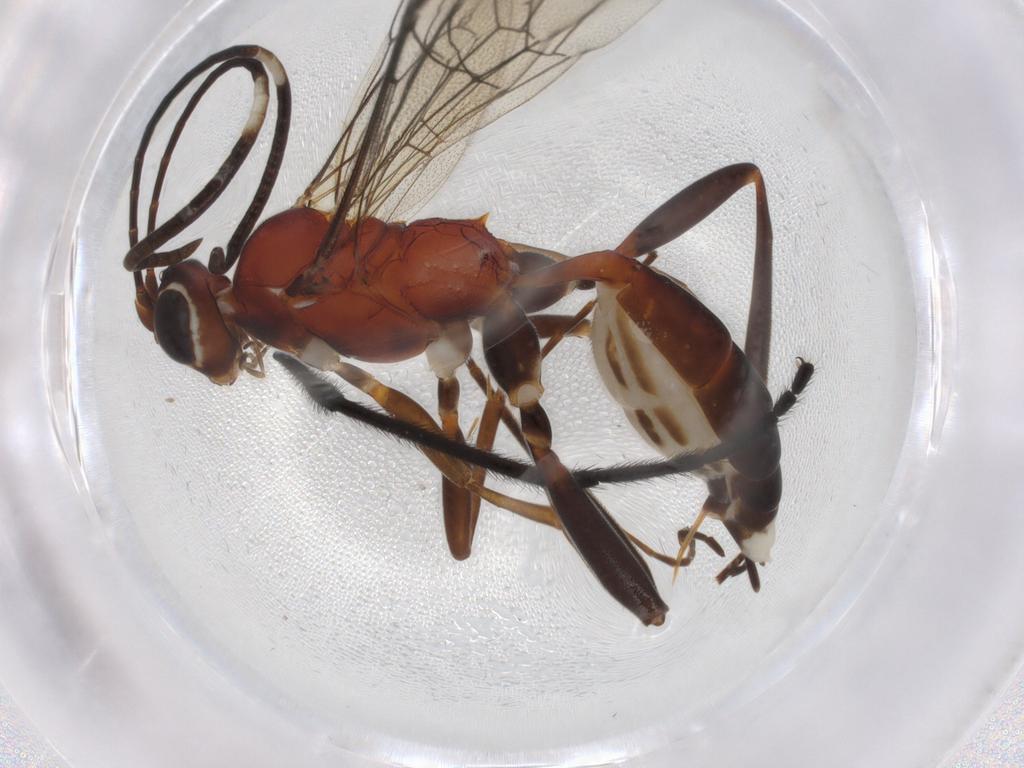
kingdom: Animalia
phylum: Arthropoda
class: Insecta
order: Hymenoptera
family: Ichneumonidae
